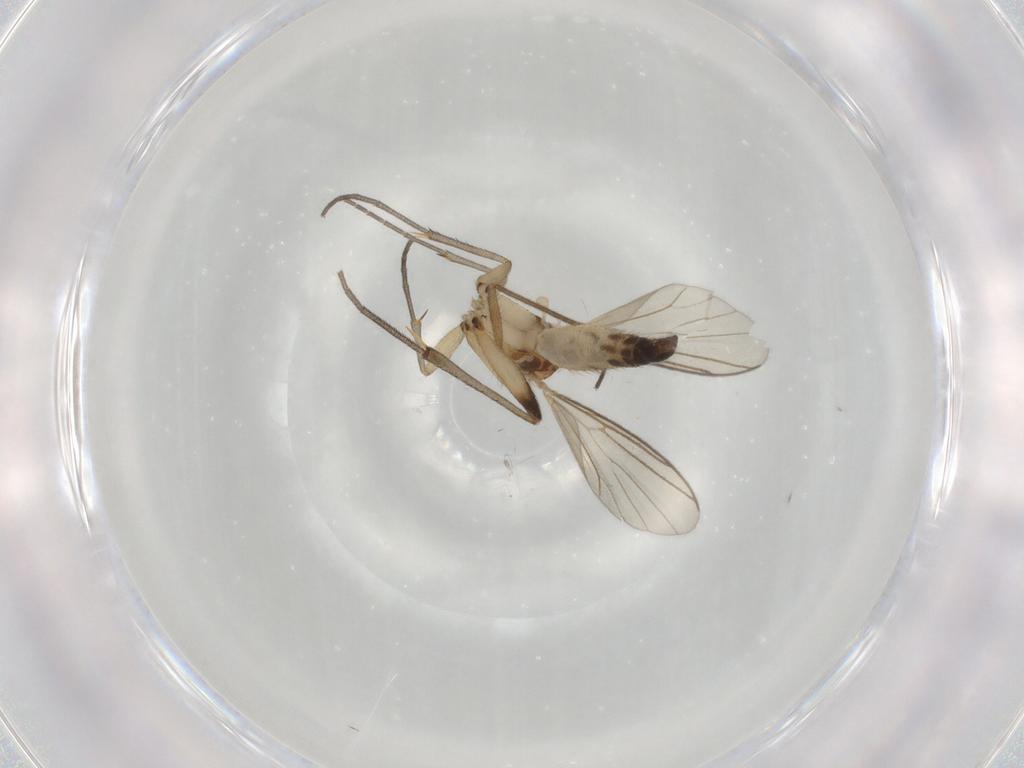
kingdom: Animalia
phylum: Arthropoda
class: Insecta
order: Diptera
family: Sciaridae
